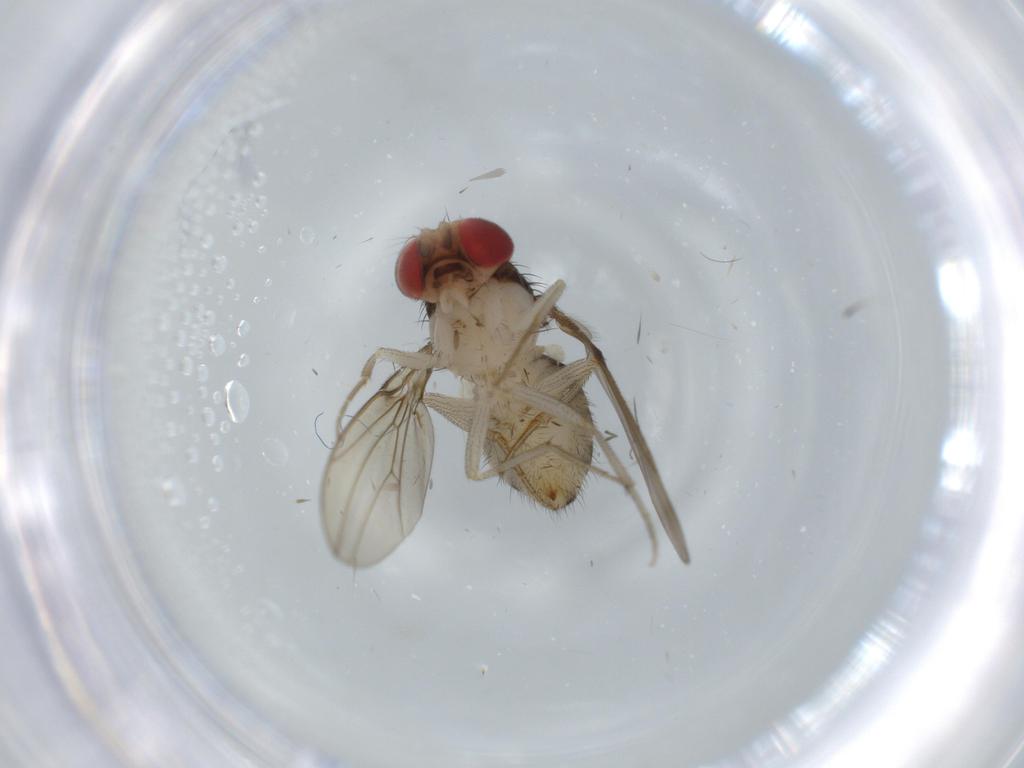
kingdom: Animalia
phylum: Arthropoda
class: Insecta
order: Diptera
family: Drosophilidae
